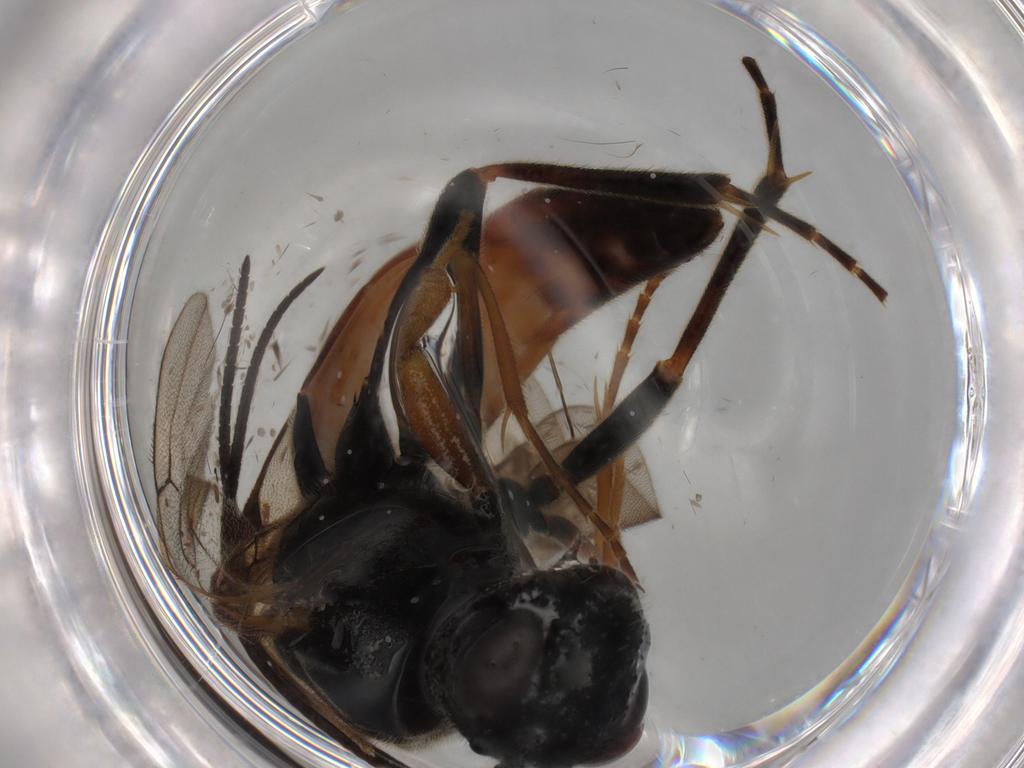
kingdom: Animalia
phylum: Arthropoda
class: Insecta
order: Hymenoptera
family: Ichneumonidae
